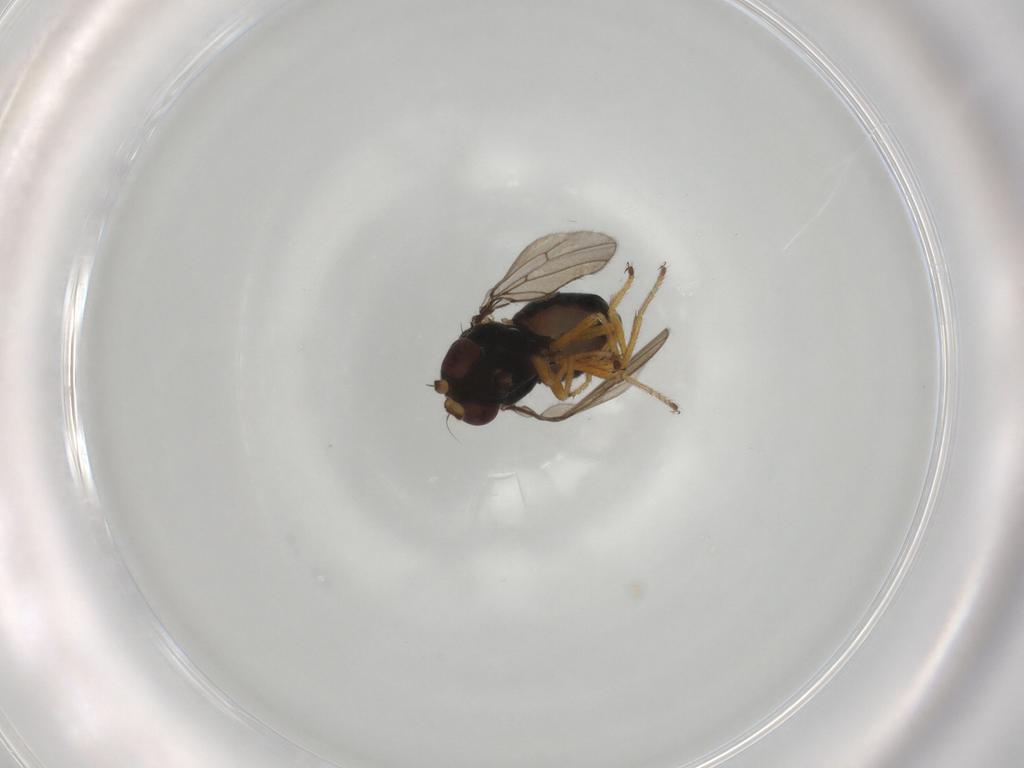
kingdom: Animalia
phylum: Arthropoda
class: Insecta
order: Diptera
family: Ephydridae
